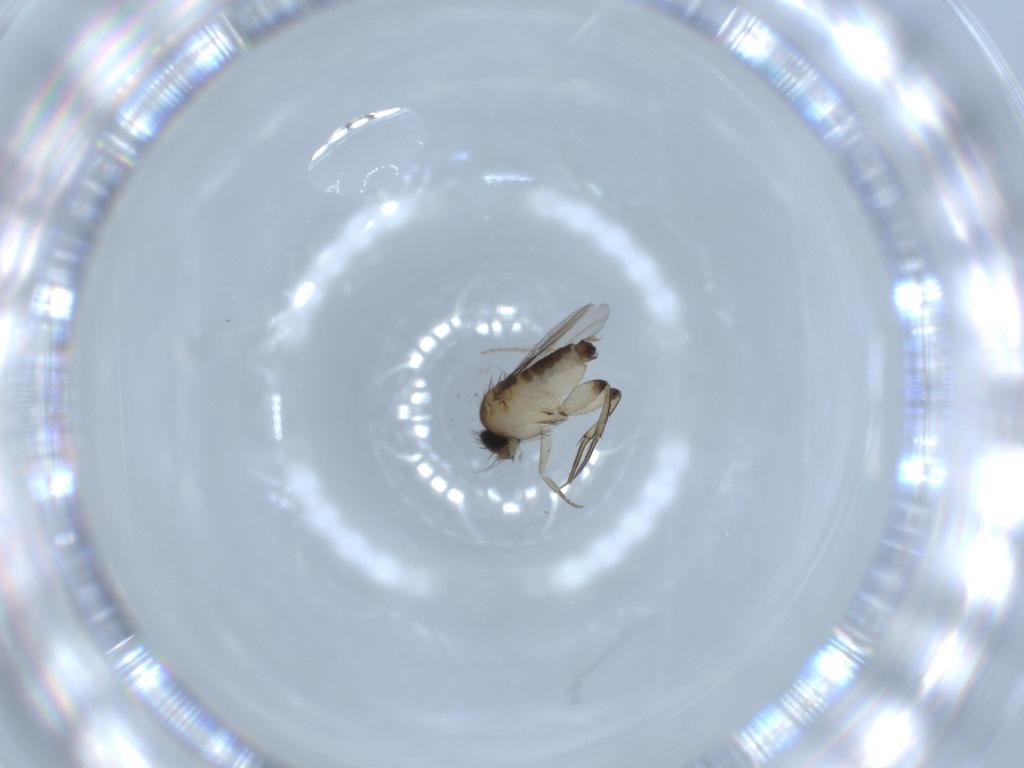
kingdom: Animalia
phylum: Arthropoda
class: Insecta
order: Diptera
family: Phoridae
